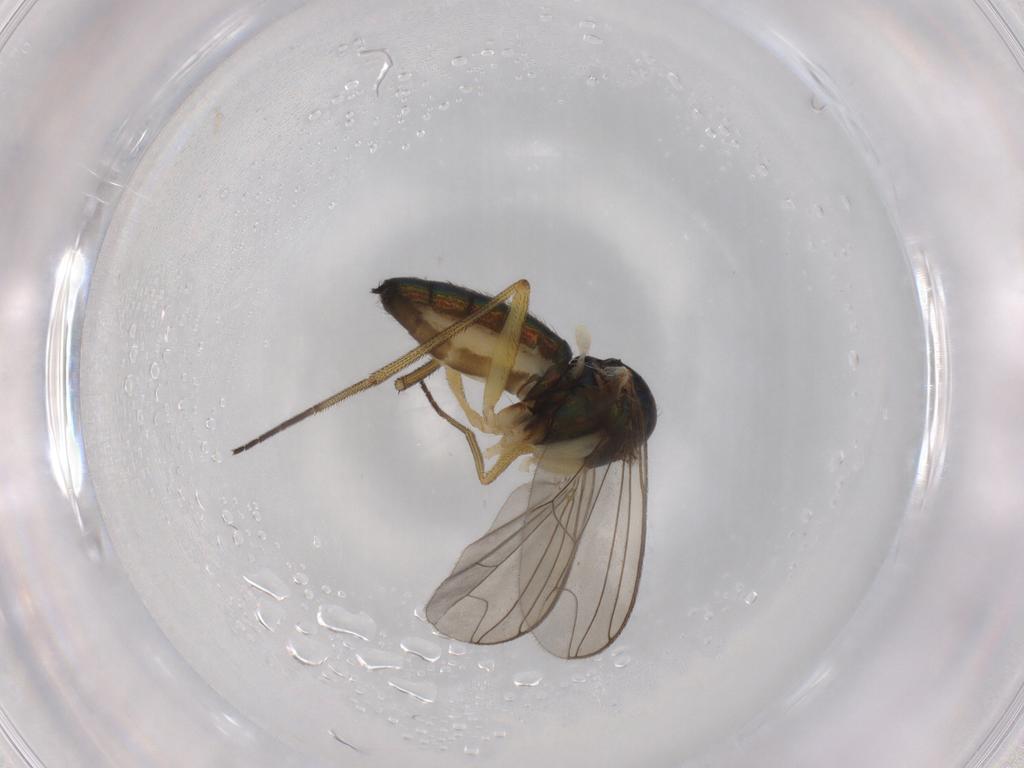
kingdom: Animalia
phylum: Arthropoda
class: Insecta
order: Diptera
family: Dolichopodidae
